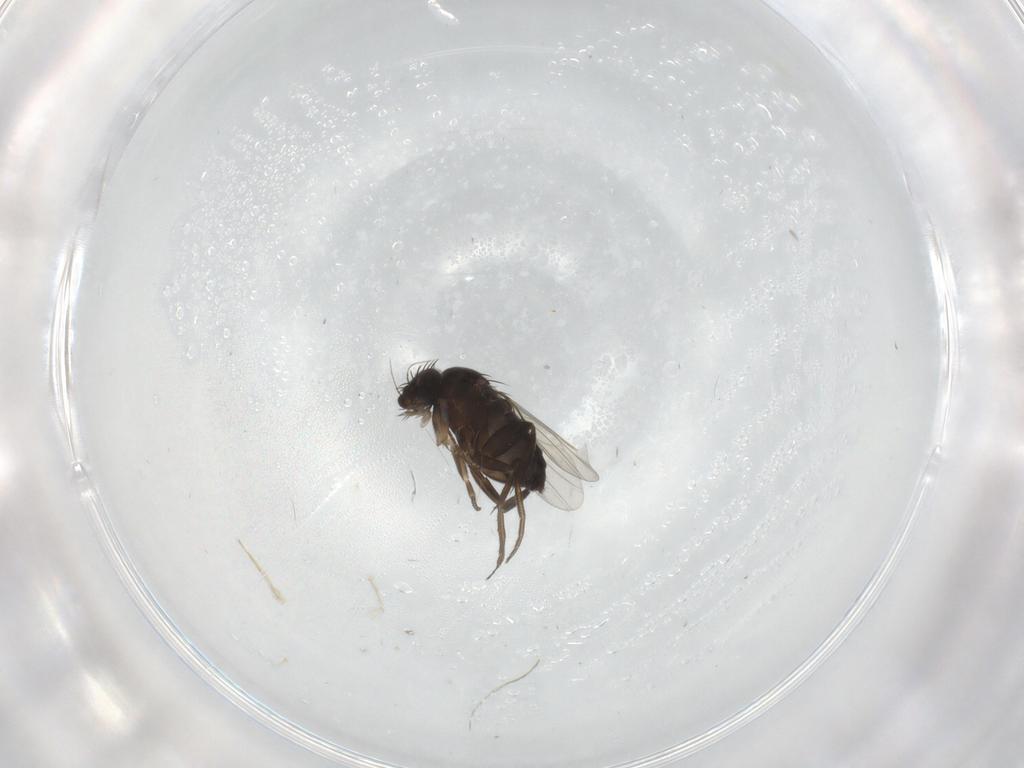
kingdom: Animalia
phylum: Arthropoda
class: Insecta
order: Diptera
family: Phoridae
